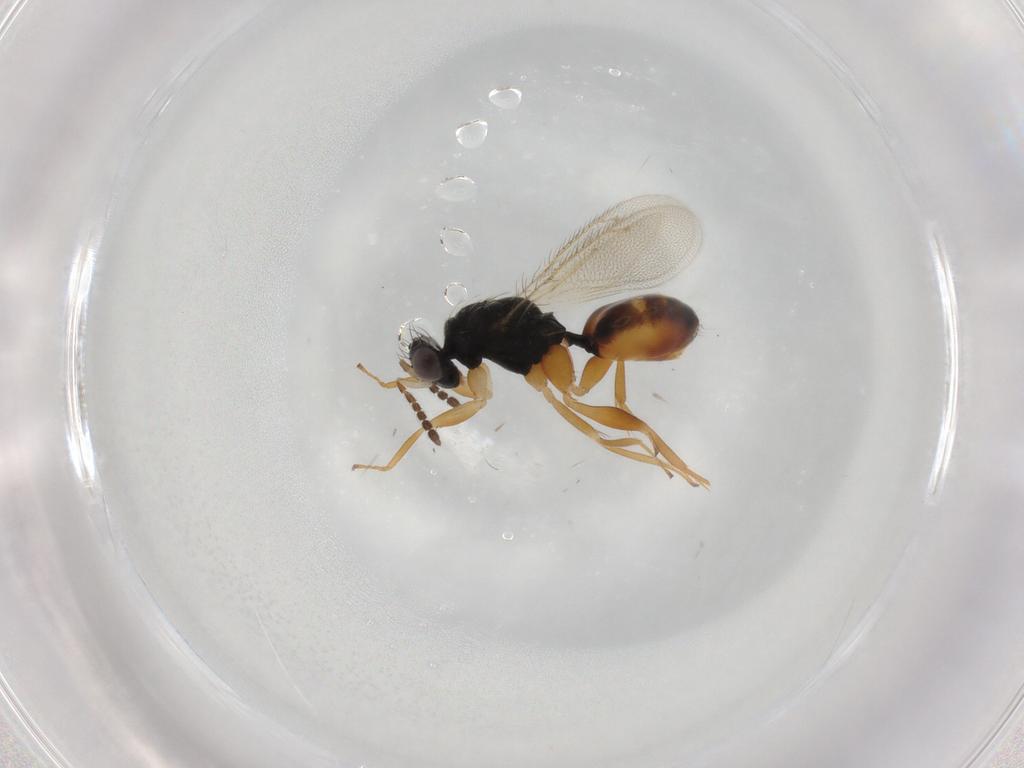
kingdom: Animalia
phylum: Arthropoda
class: Insecta
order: Hymenoptera
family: Eulophidae
